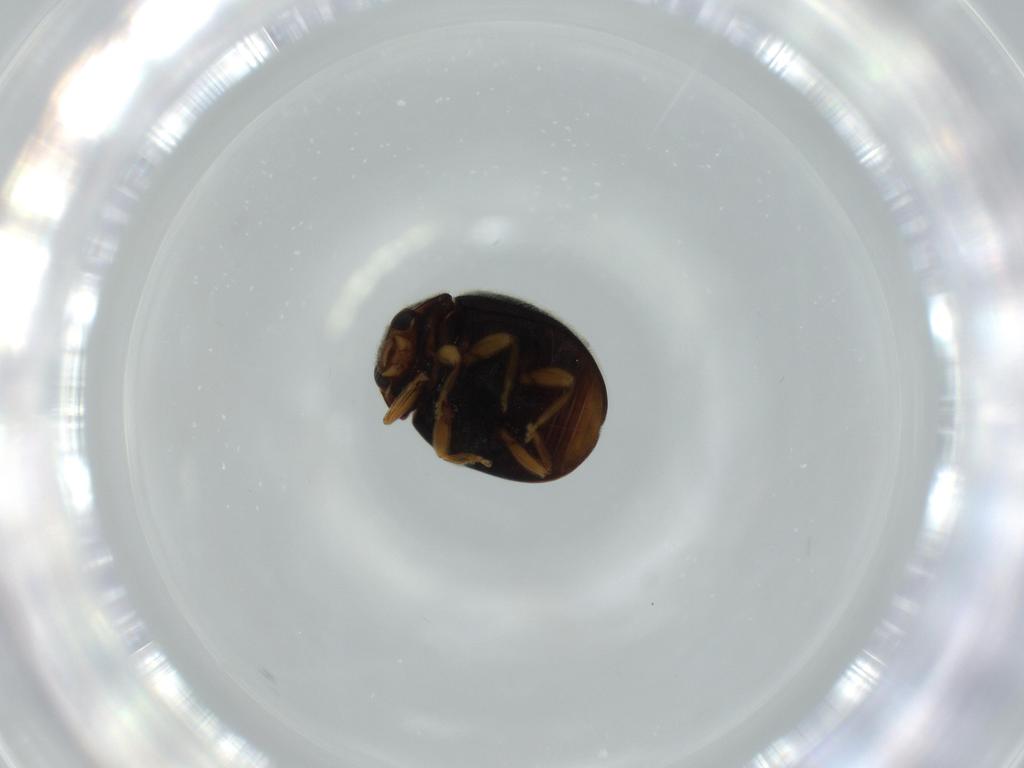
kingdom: Animalia
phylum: Arthropoda
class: Insecta
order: Coleoptera
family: Coccinellidae
